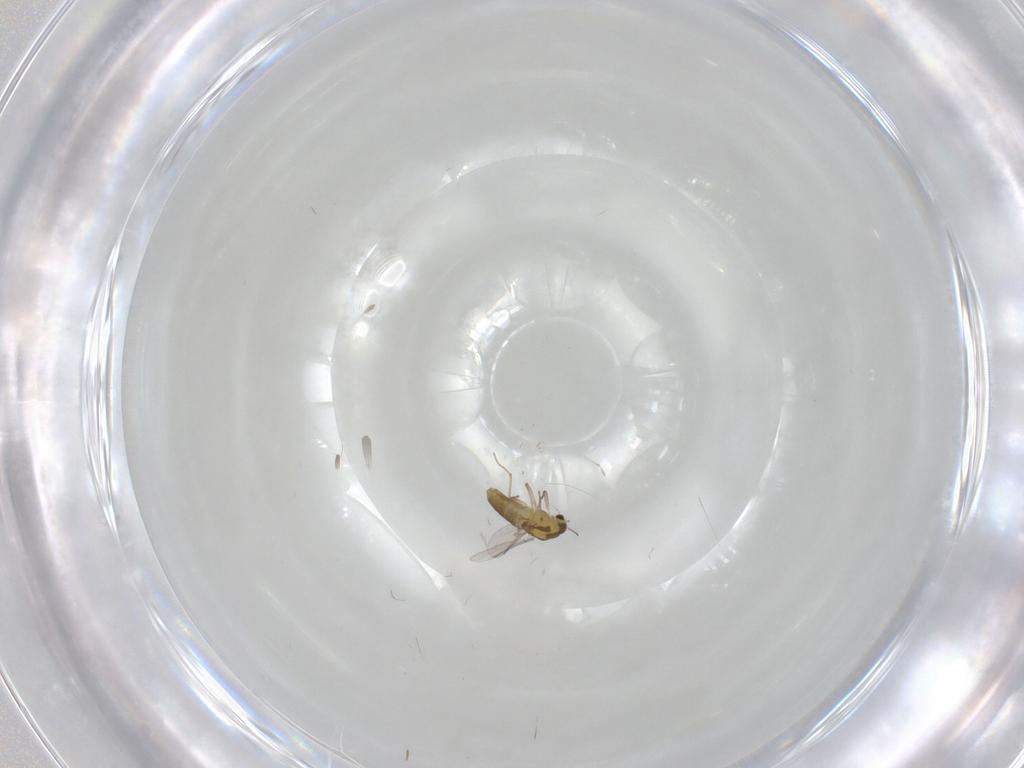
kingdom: Animalia
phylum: Arthropoda
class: Insecta
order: Diptera
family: Chironomidae
